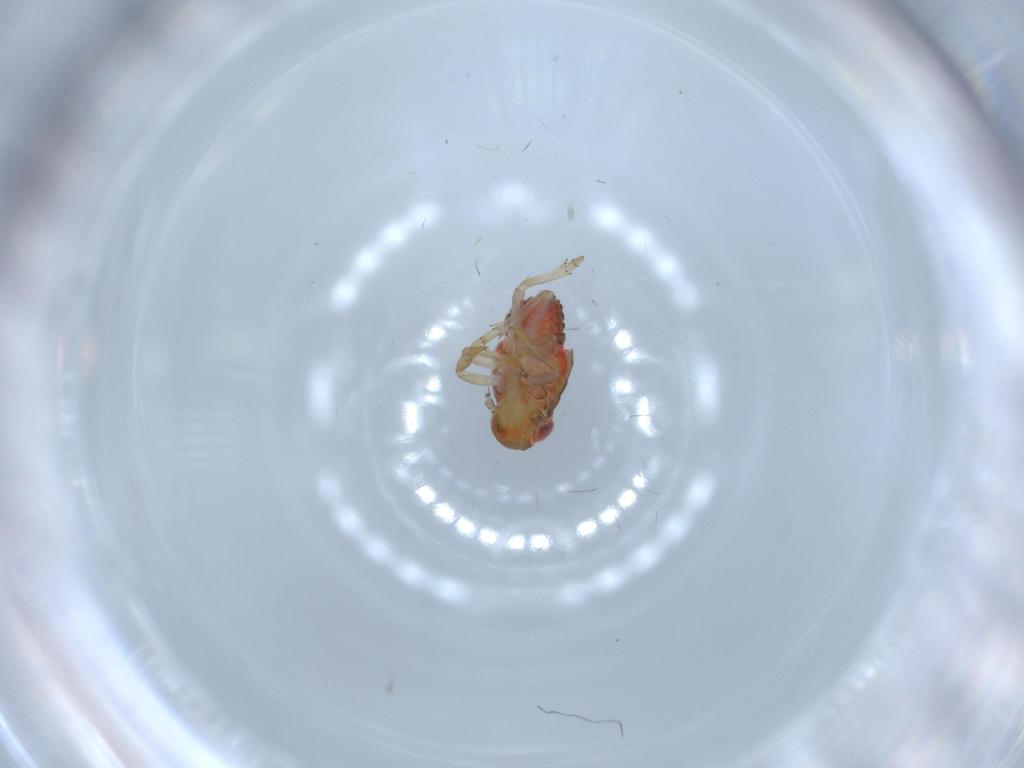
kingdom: Animalia
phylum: Arthropoda
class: Insecta
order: Hemiptera
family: Issidae
